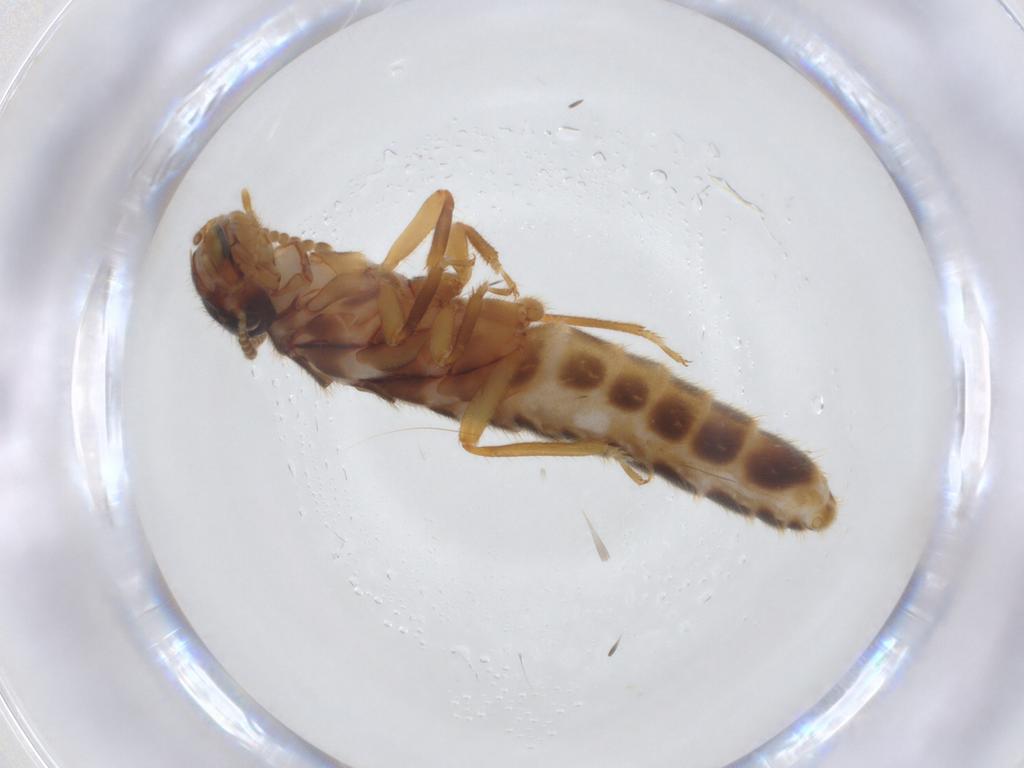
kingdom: Animalia
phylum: Arthropoda
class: Insecta
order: Blattodea
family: Termitidae
